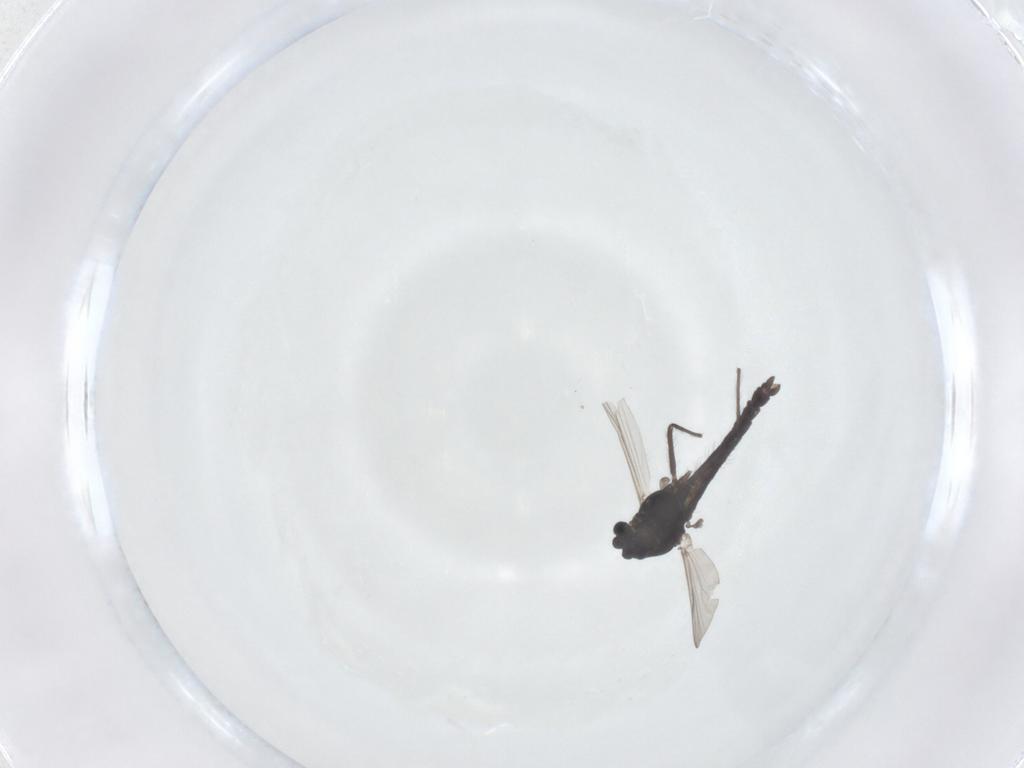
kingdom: Animalia
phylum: Arthropoda
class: Insecta
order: Diptera
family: Chironomidae
